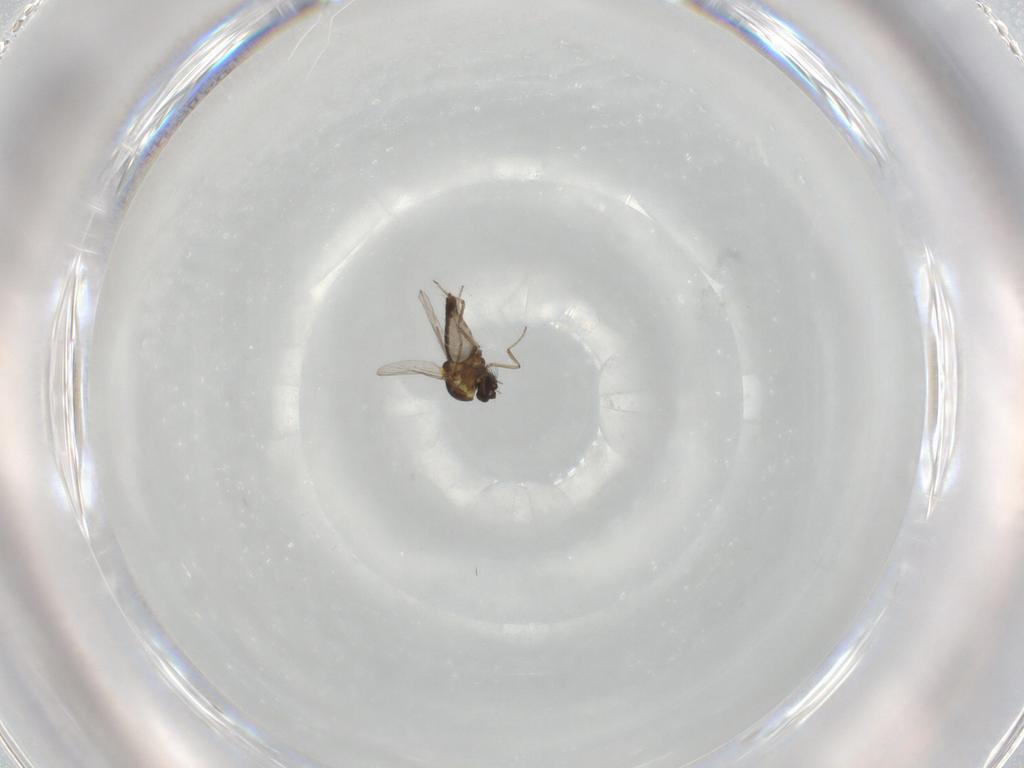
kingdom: Animalia
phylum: Arthropoda
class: Insecta
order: Diptera
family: Ceratopogonidae
